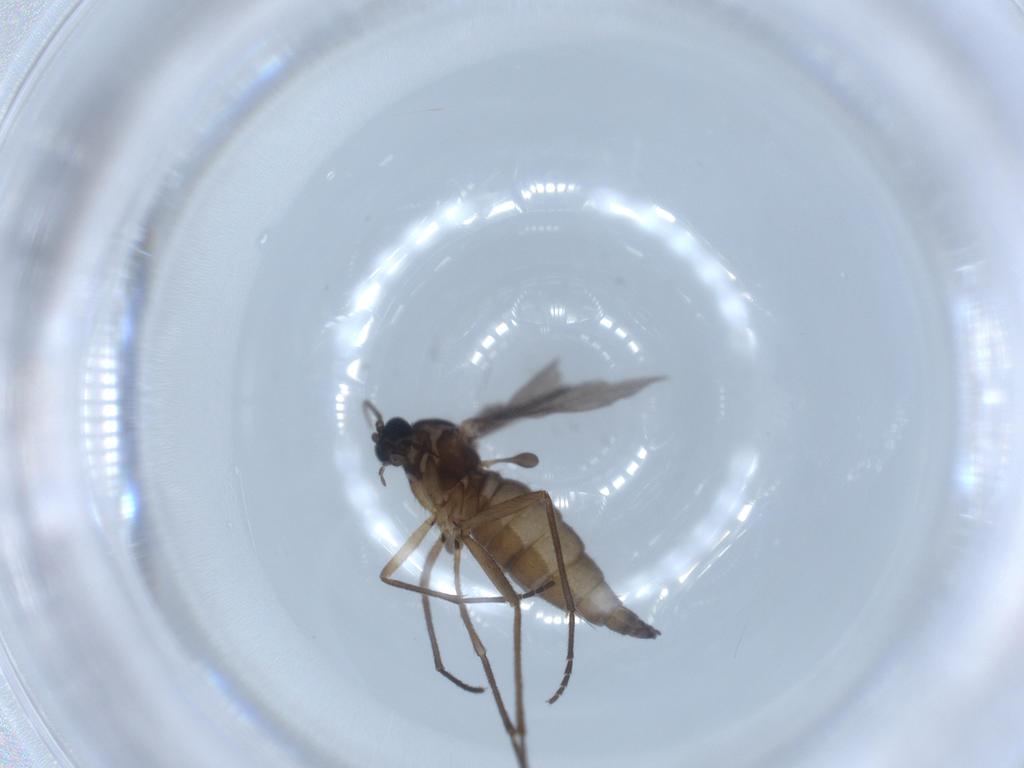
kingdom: Animalia
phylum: Arthropoda
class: Insecta
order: Diptera
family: Sciaridae
